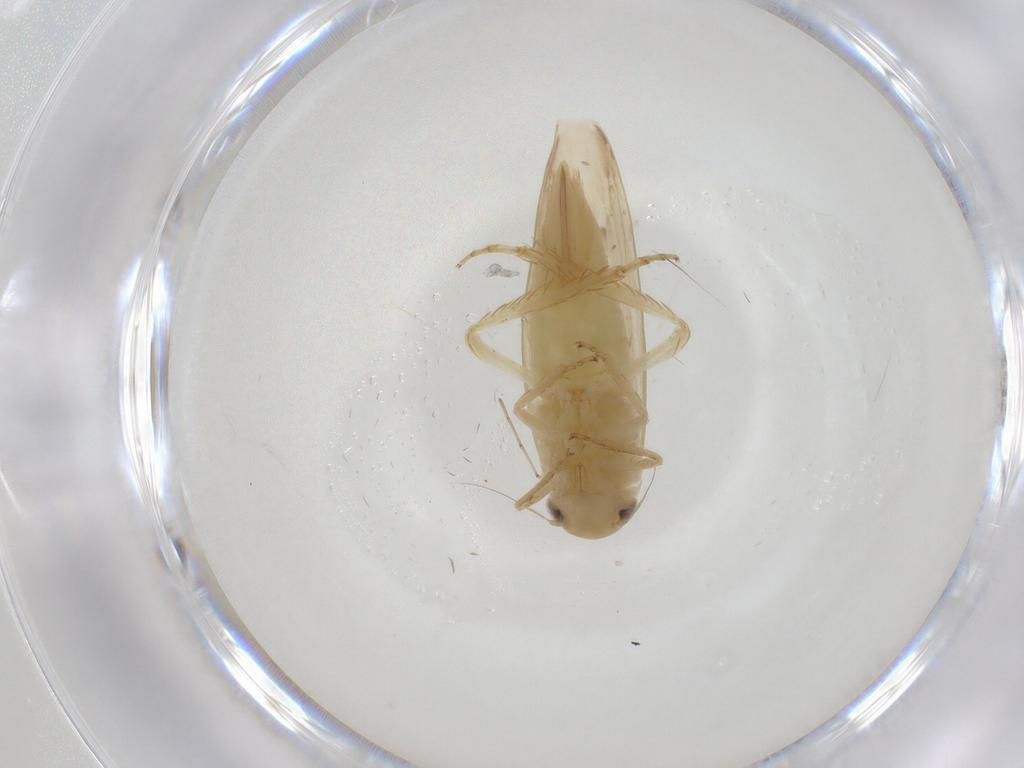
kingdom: Animalia
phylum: Arthropoda
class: Insecta
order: Hemiptera
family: Cicadellidae
